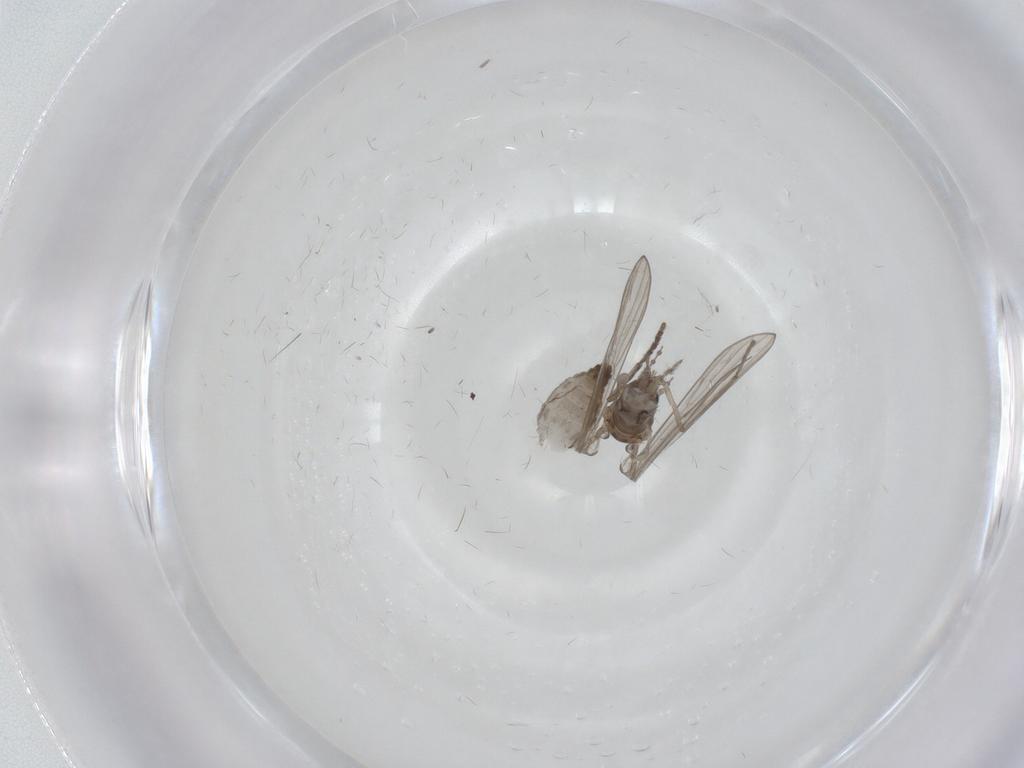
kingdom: Animalia
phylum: Arthropoda
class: Insecta
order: Diptera
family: Psychodidae
